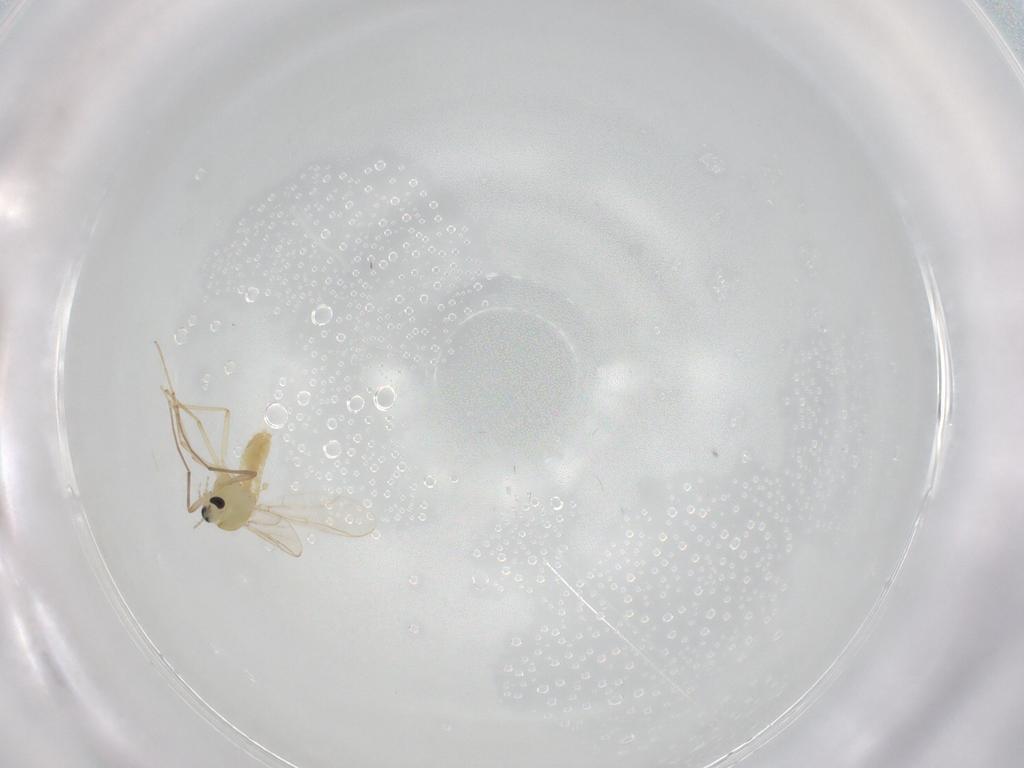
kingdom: Animalia
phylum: Arthropoda
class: Insecta
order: Diptera
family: Chironomidae
